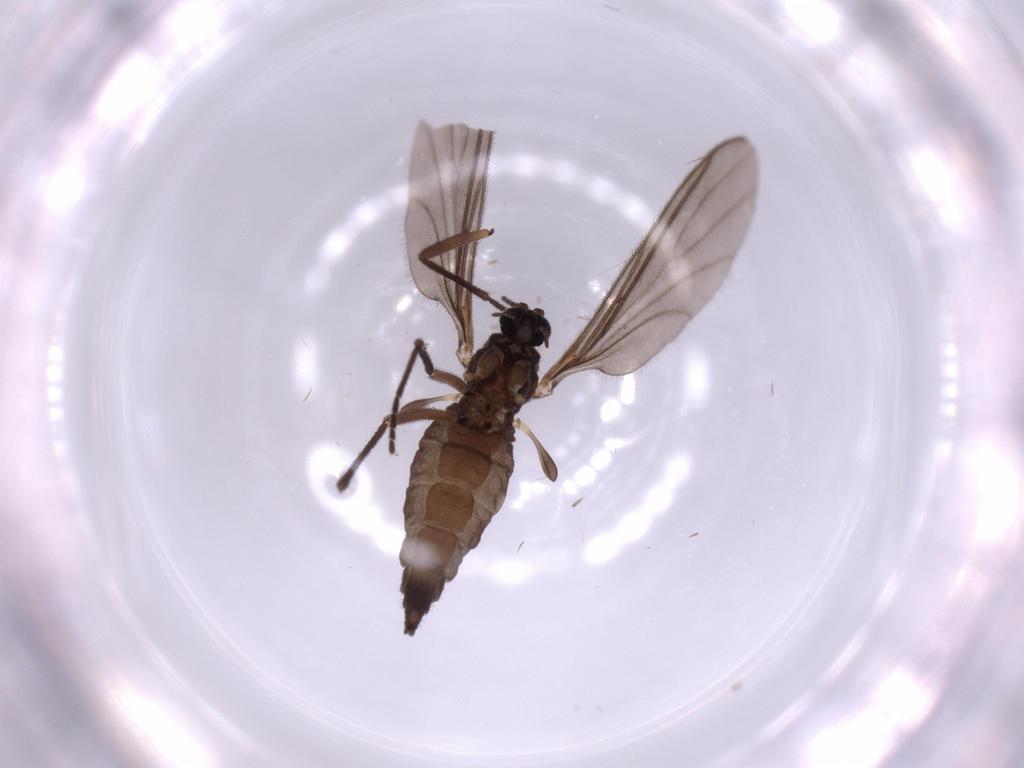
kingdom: Animalia
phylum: Arthropoda
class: Insecta
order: Diptera
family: Sciaridae
